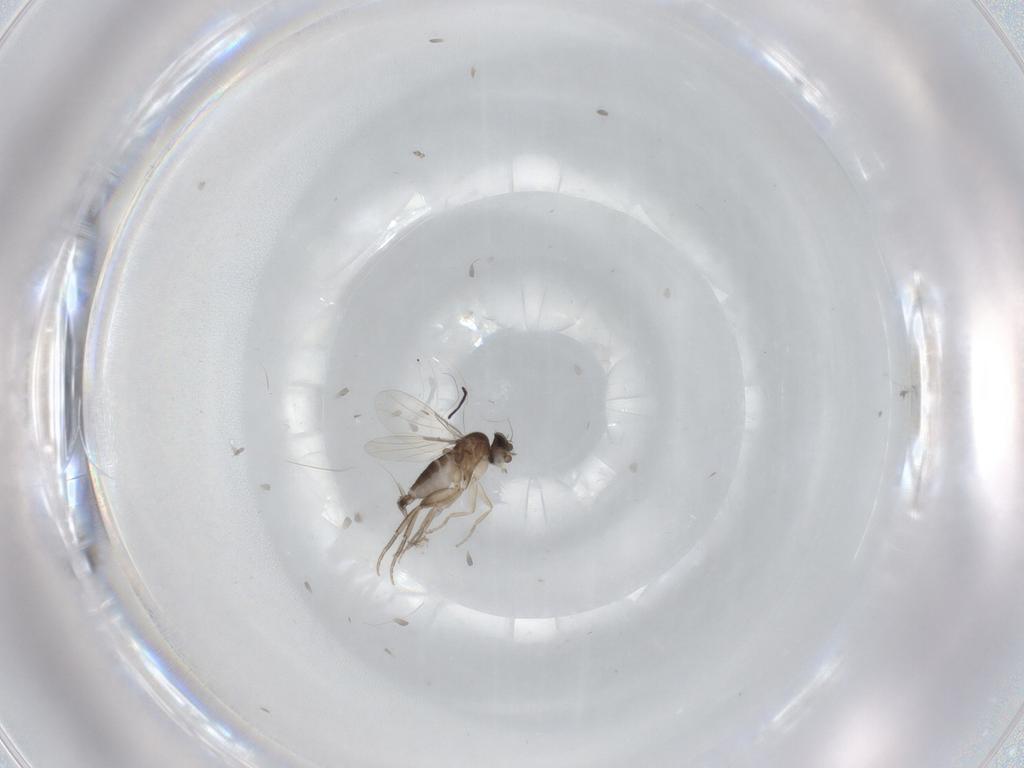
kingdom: Animalia
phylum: Arthropoda
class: Insecta
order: Diptera
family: Phoridae
